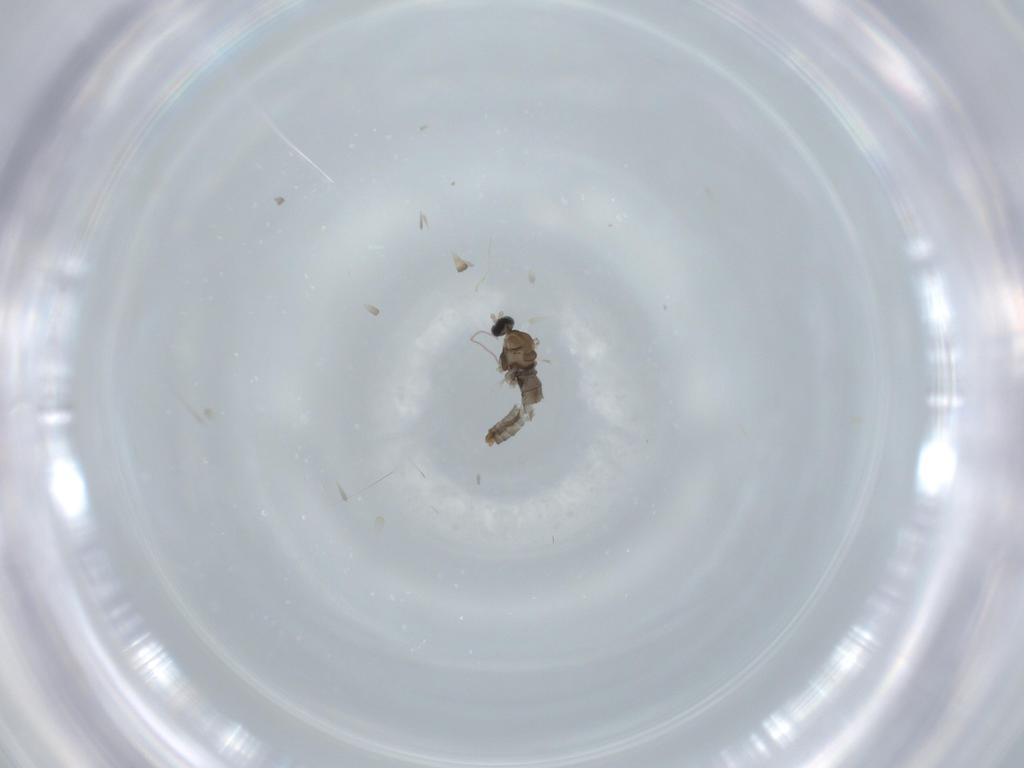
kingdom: Animalia
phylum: Arthropoda
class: Insecta
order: Diptera
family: Cecidomyiidae
